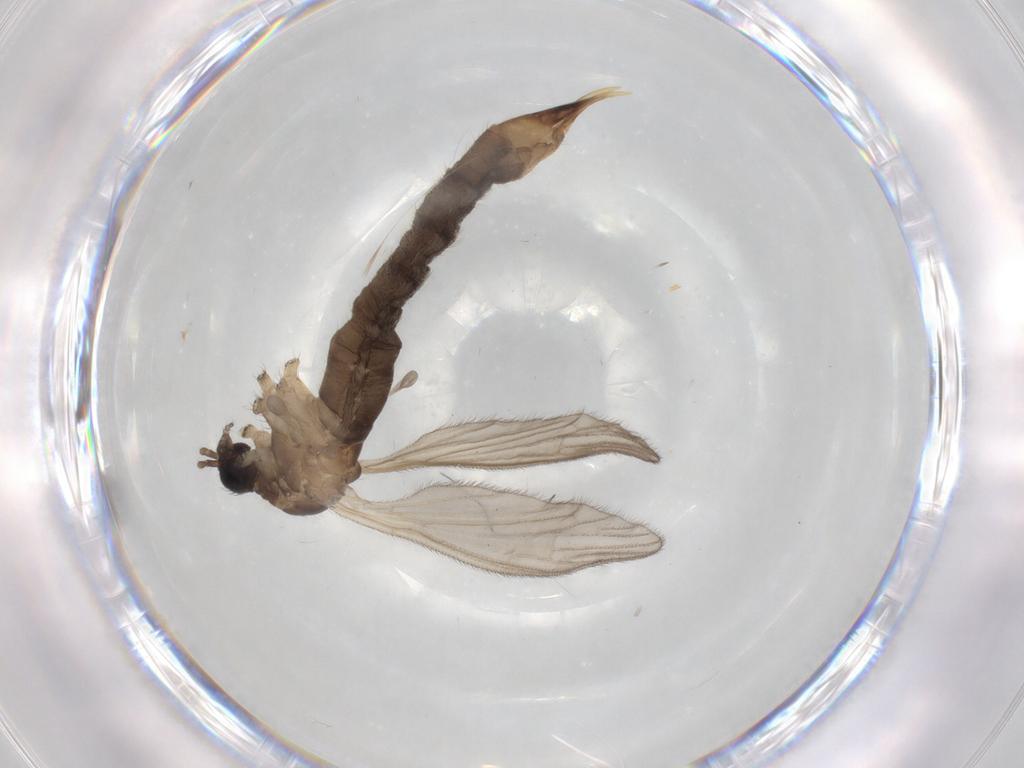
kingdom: Animalia
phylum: Arthropoda
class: Insecta
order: Diptera
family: Limoniidae
